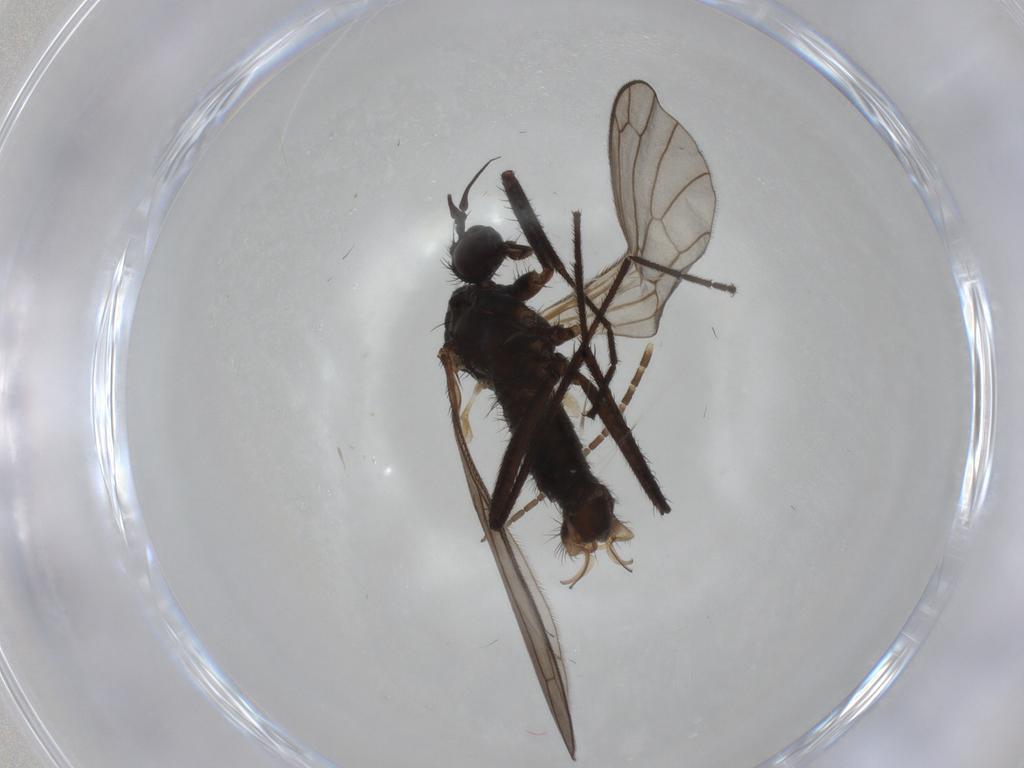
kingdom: Animalia
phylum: Arthropoda
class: Insecta
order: Diptera
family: Empididae
